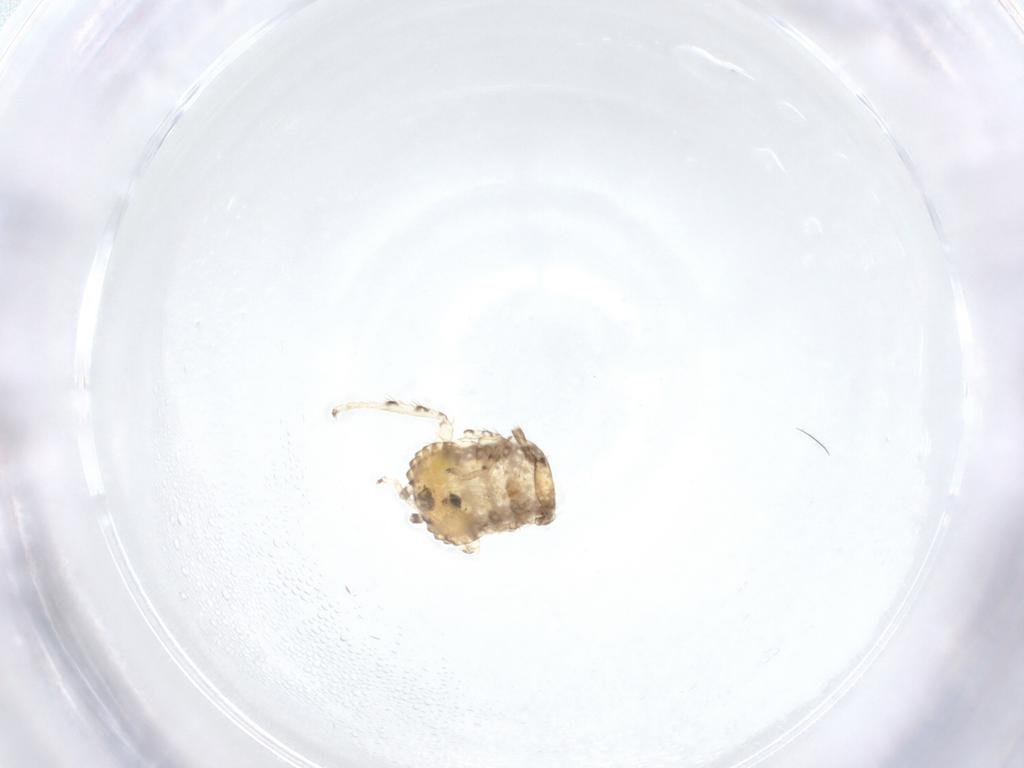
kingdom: Animalia
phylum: Arthropoda
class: Insecta
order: Blattodea
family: Ectobiidae
